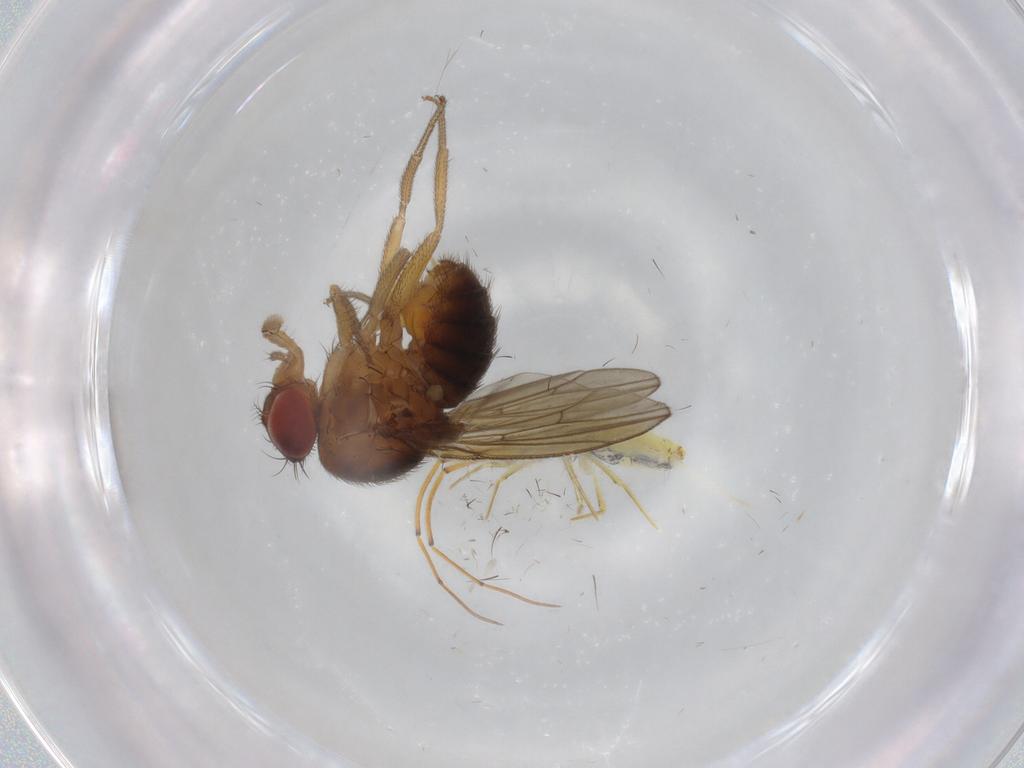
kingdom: Animalia
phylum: Arthropoda
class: Insecta
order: Diptera
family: Drosophilidae
